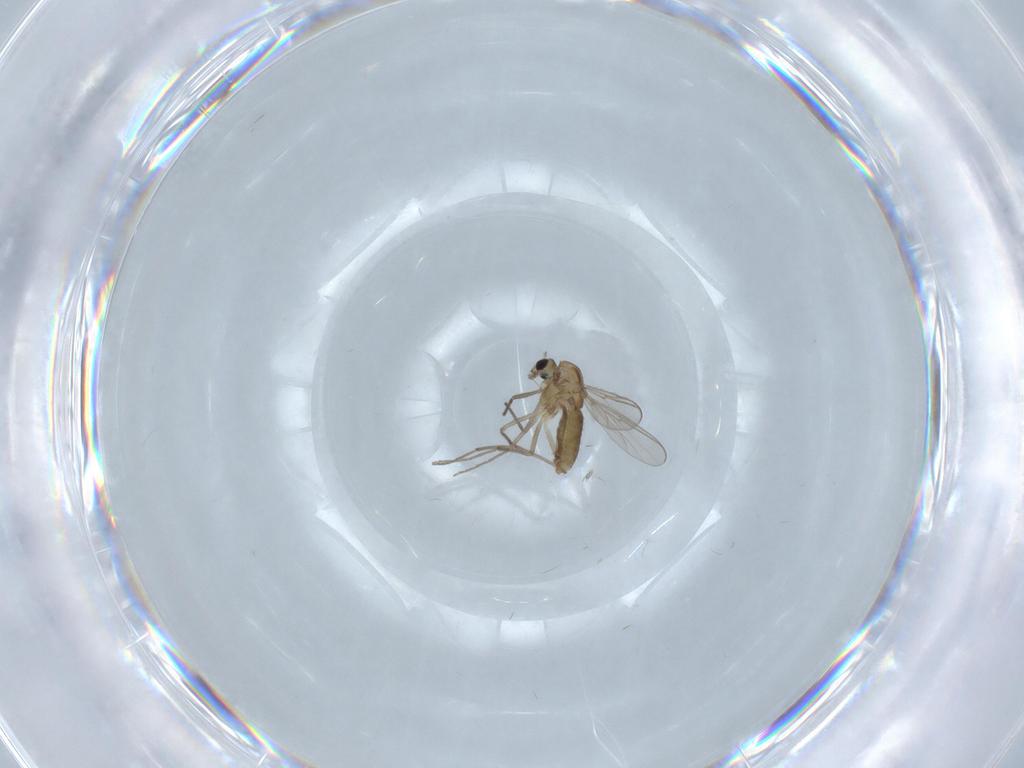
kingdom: Animalia
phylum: Arthropoda
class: Insecta
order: Diptera
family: Chironomidae
